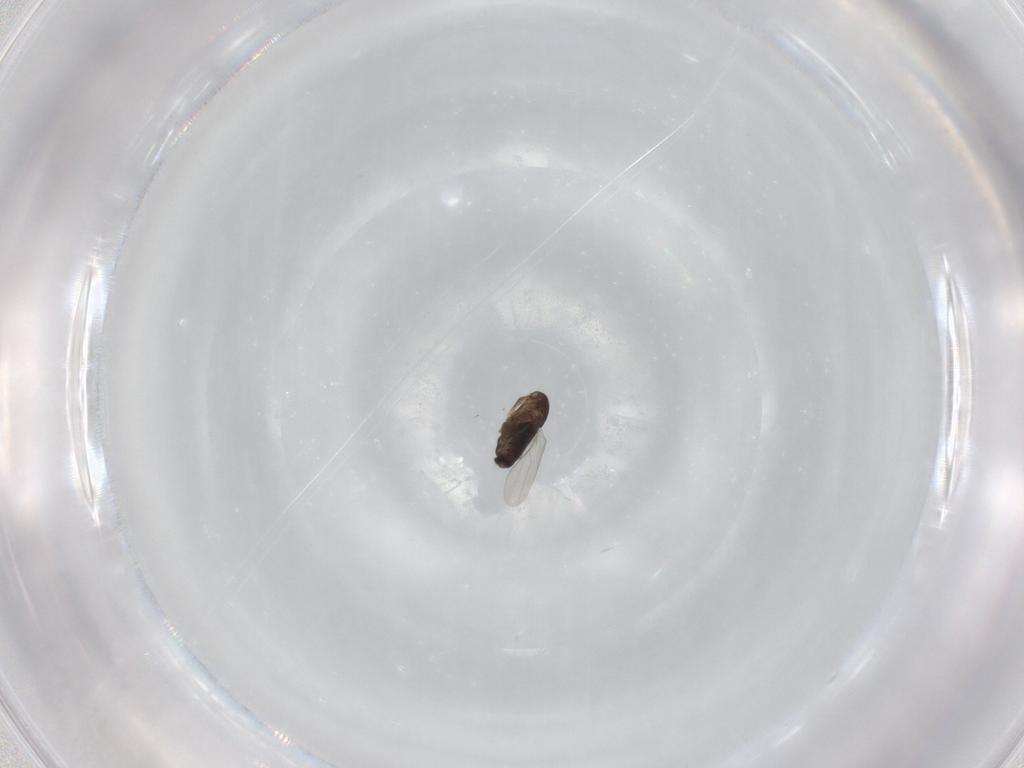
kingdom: Animalia
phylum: Arthropoda
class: Insecta
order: Diptera
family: Phoridae
